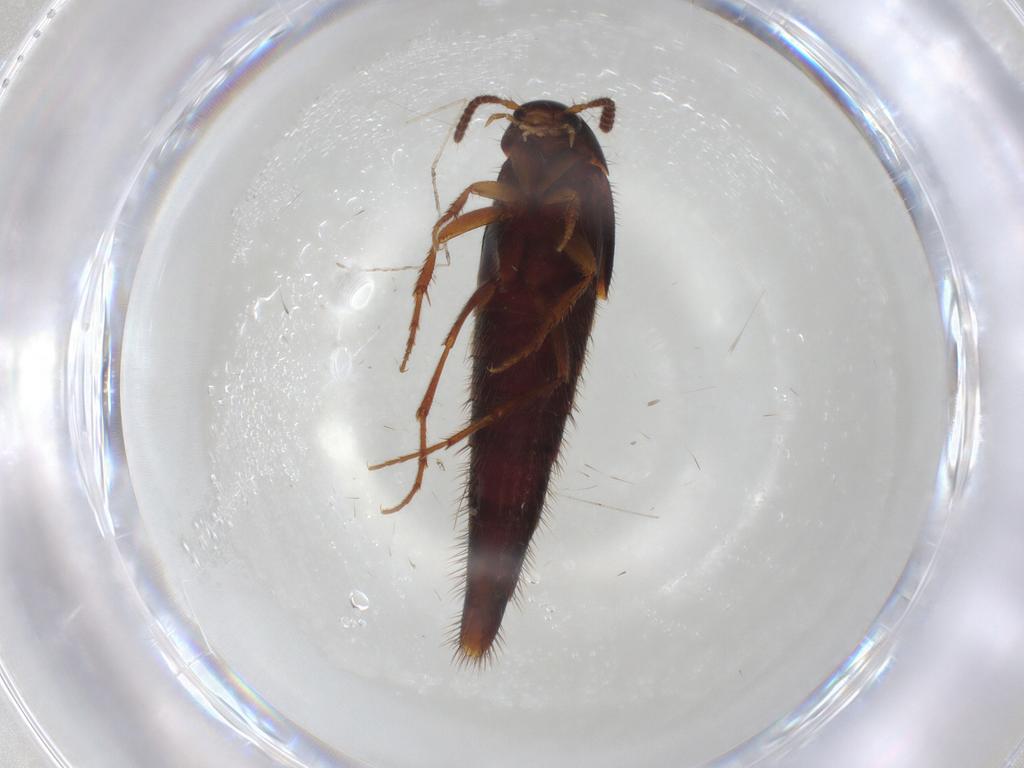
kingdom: Animalia
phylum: Arthropoda
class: Insecta
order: Coleoptera
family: Staphylinidae
